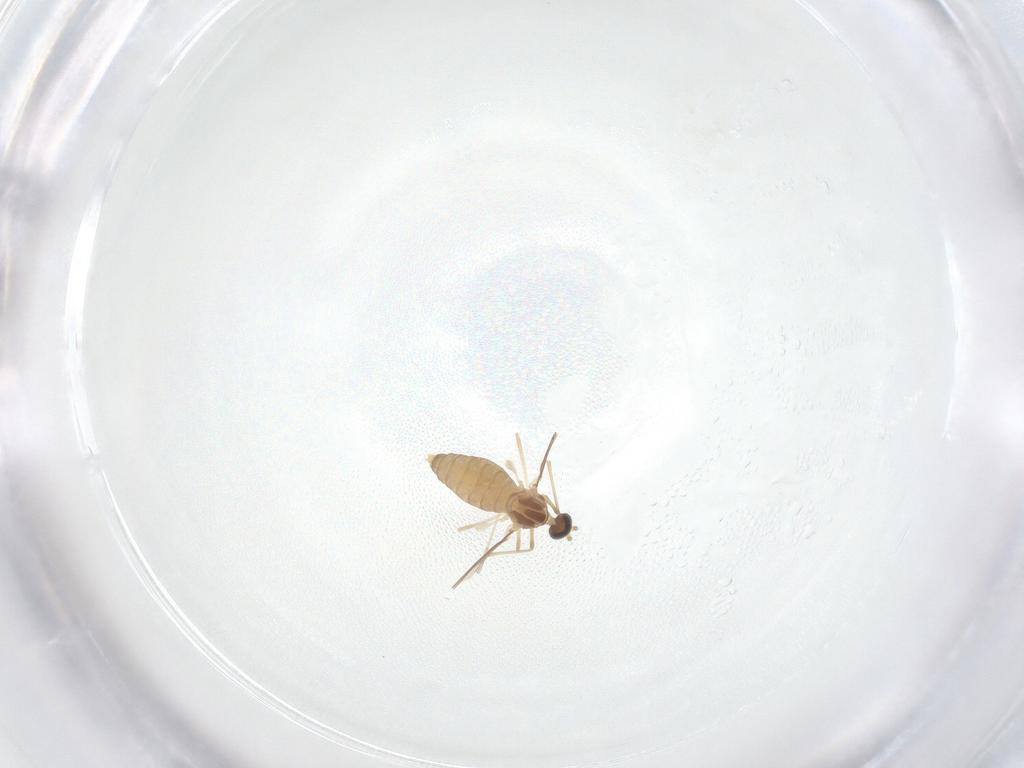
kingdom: Animalia
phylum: Arthropoda
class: Insecta
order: Diptera
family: Cecidomyiidae
